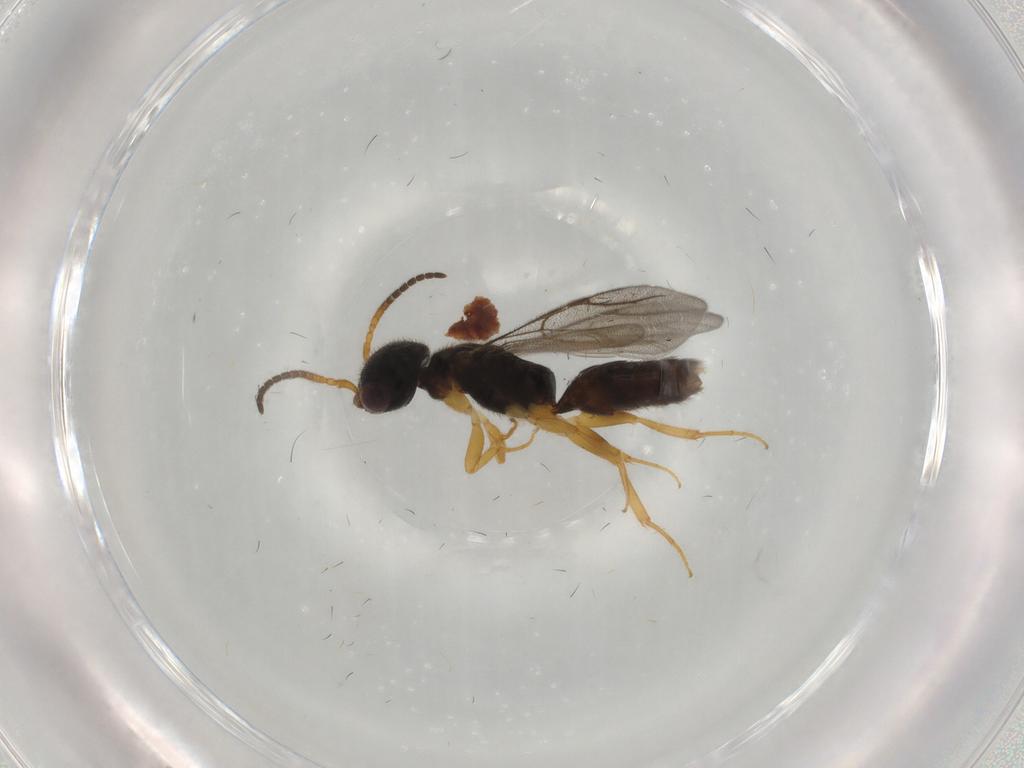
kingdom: Animalia
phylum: Arthropoda
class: Insecta
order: Hymenoptera
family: Bethylidae
